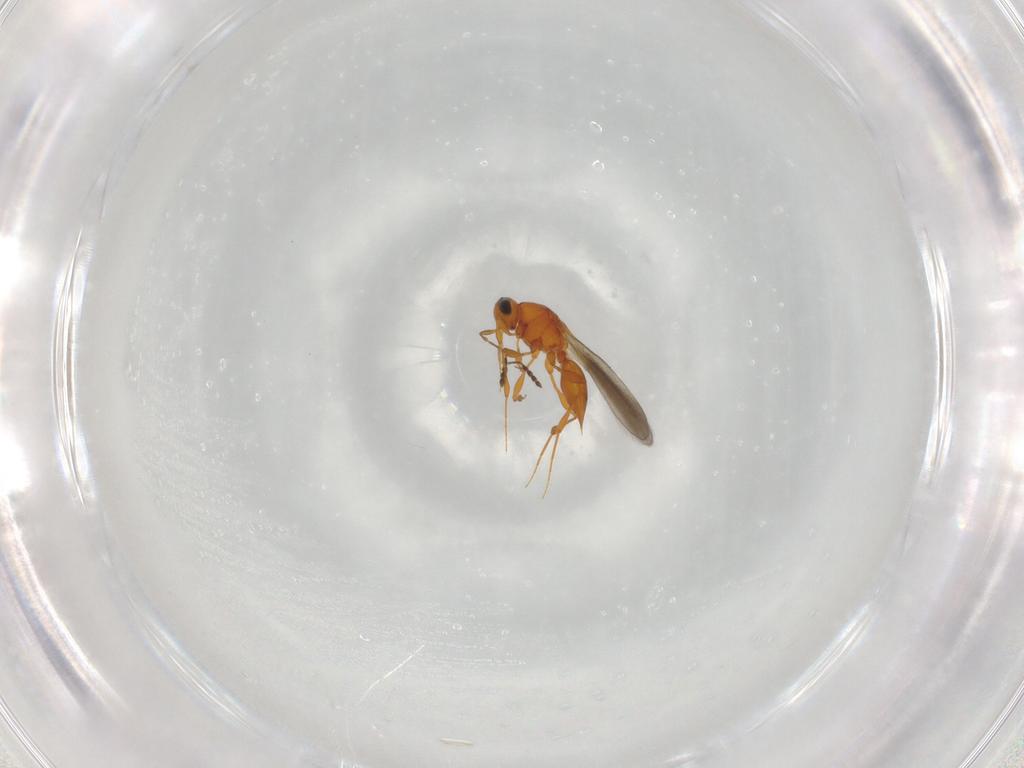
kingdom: Animalia
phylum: Arthropoda
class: Insecta
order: Hymenoptera
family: Platygastridae
